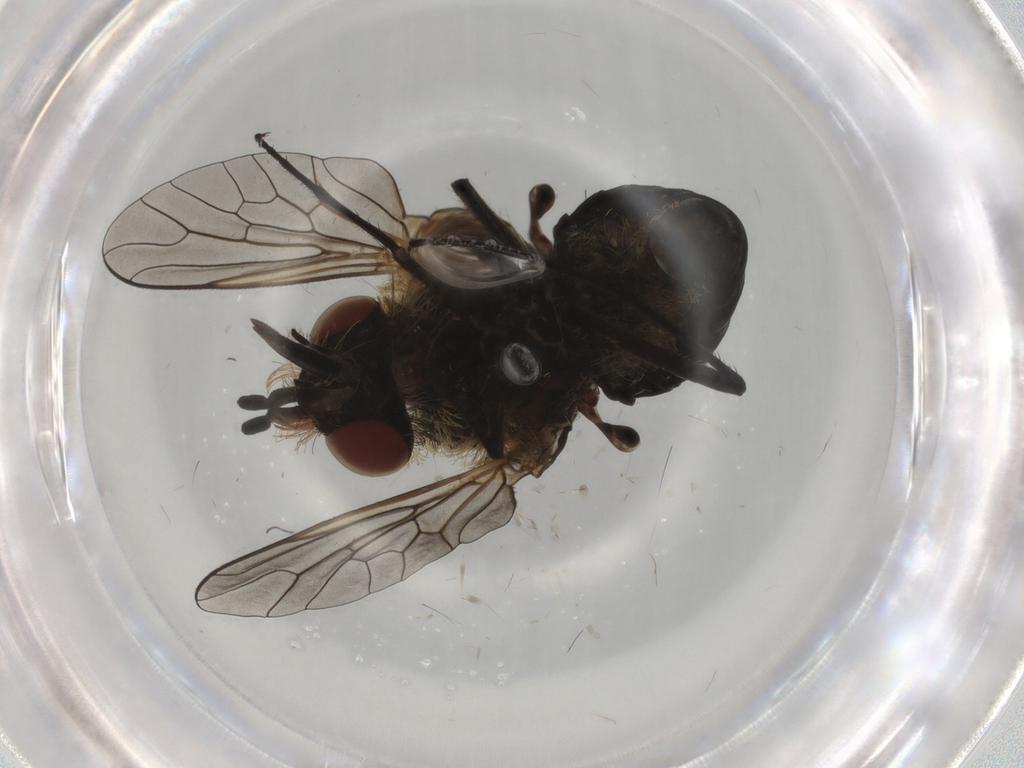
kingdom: Animalia
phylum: Arthropoda
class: Insecta
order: Diptera
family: Bombyliidae
